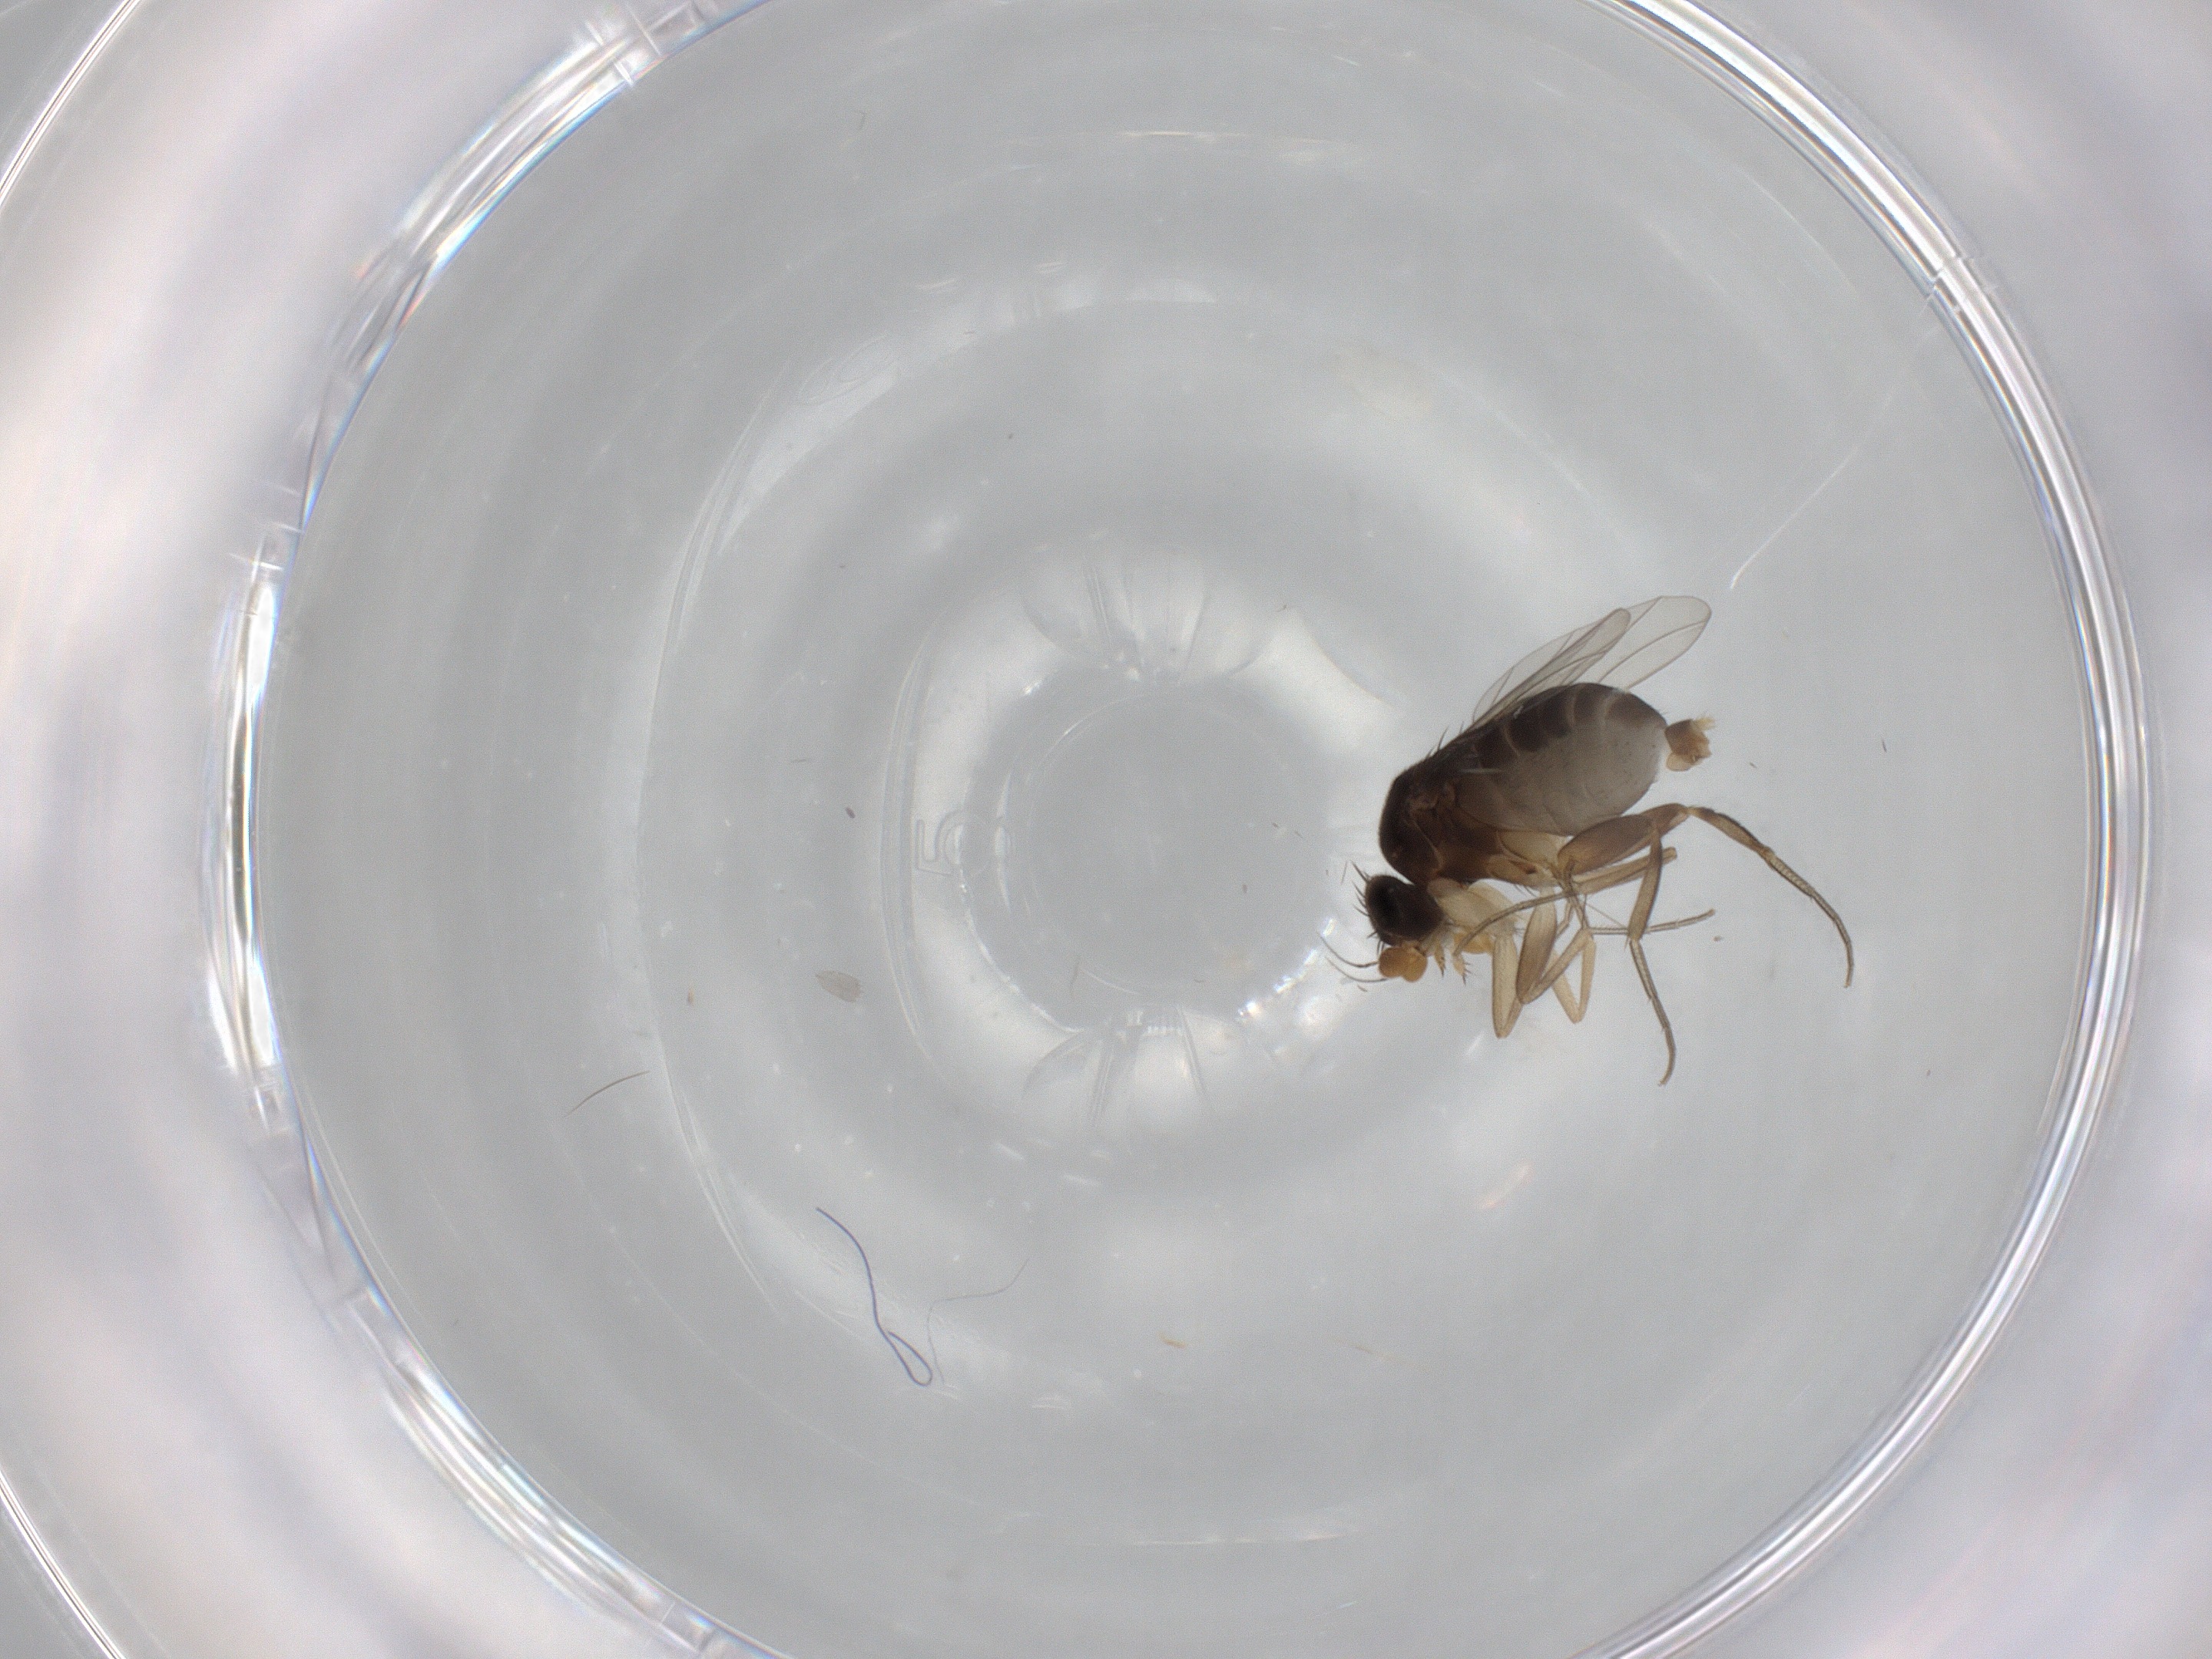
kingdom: Animalia
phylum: Arthropoda
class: Insecta
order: Diptera
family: Phoridae
